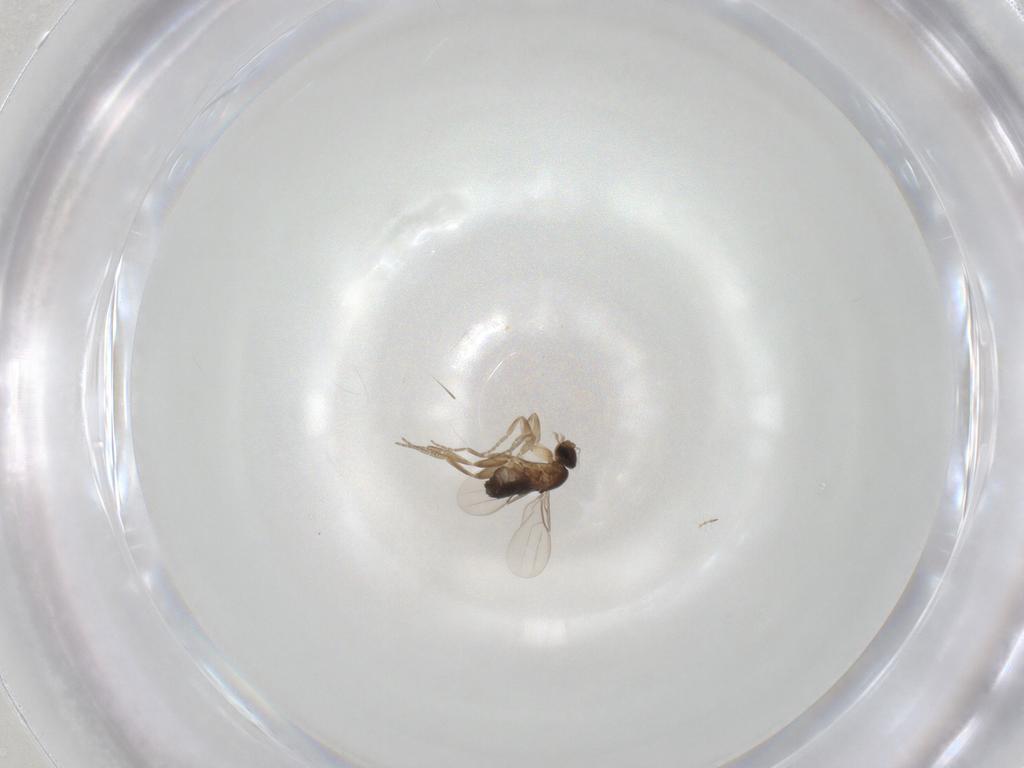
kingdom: Animalia
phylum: Arthropoda
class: Insecta
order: Diptera
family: Phoridae
